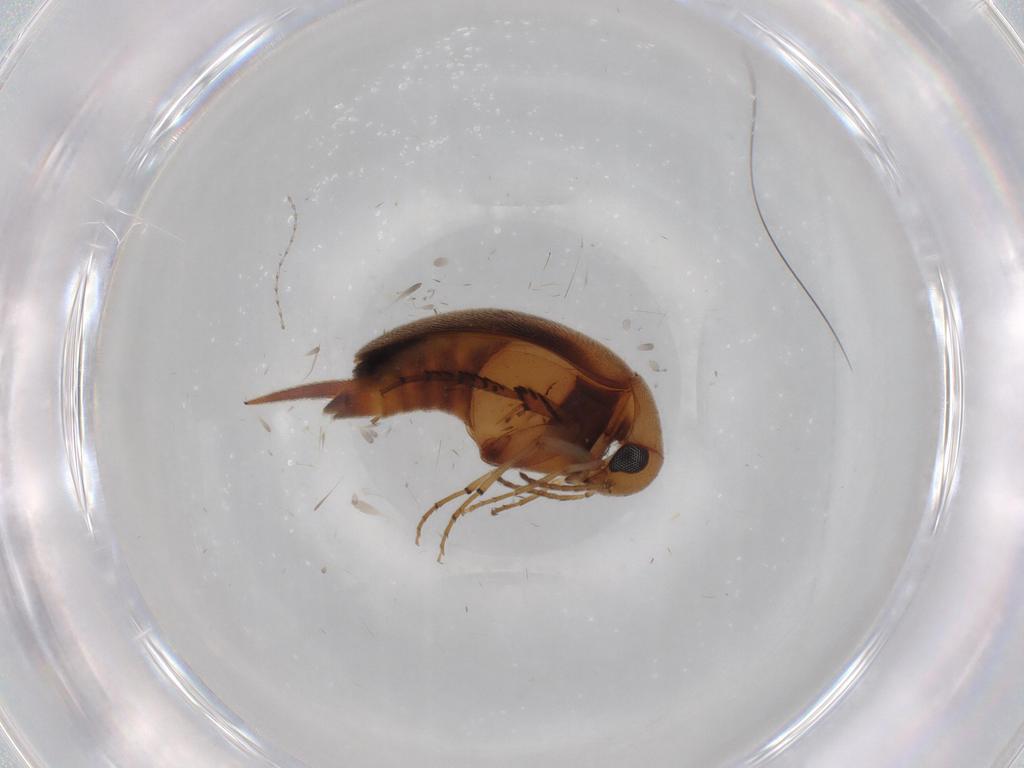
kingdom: Animalia
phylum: Arthropoda
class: Insecta
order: Coleoptera
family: Mordellidae
